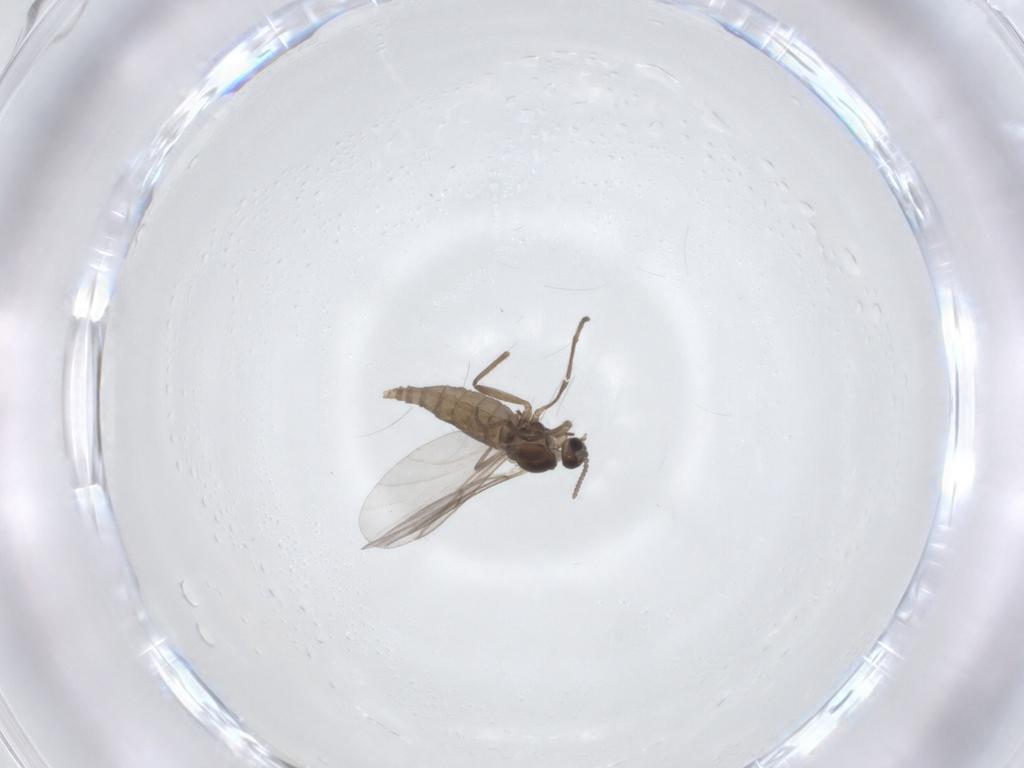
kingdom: Animalia
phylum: Arthropoda
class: Insecta
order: Diptera
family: Cecidomyiidae
